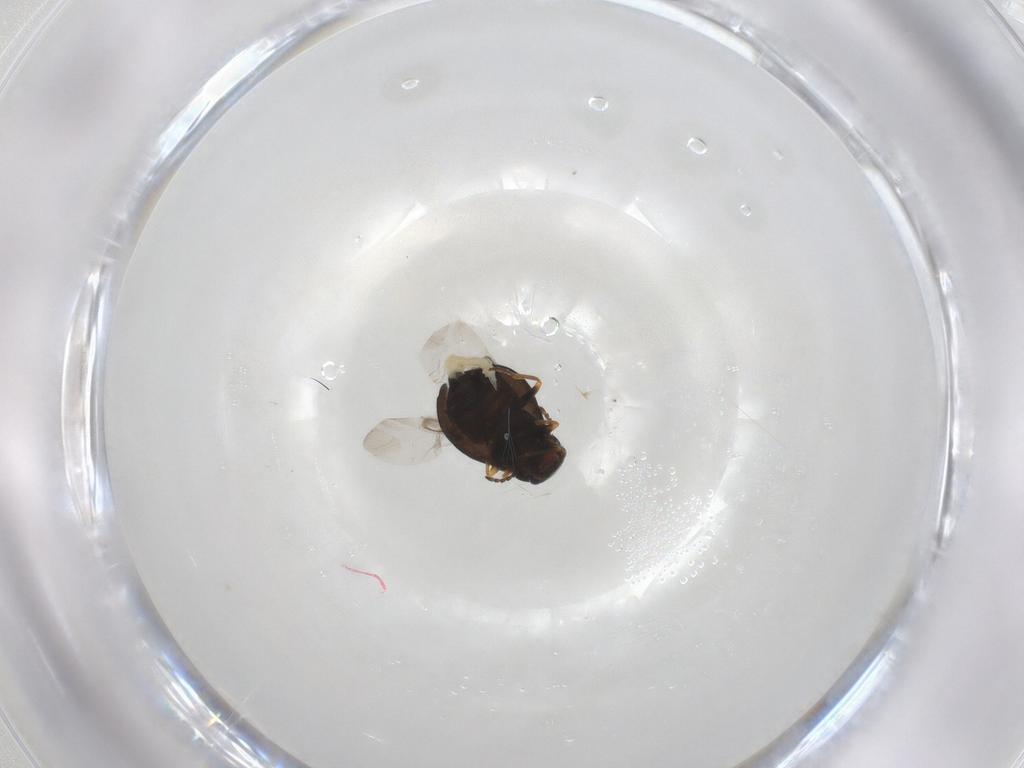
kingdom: Animalia
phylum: Arthropoda
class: Insecta
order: Coleoptera
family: Melyridae
